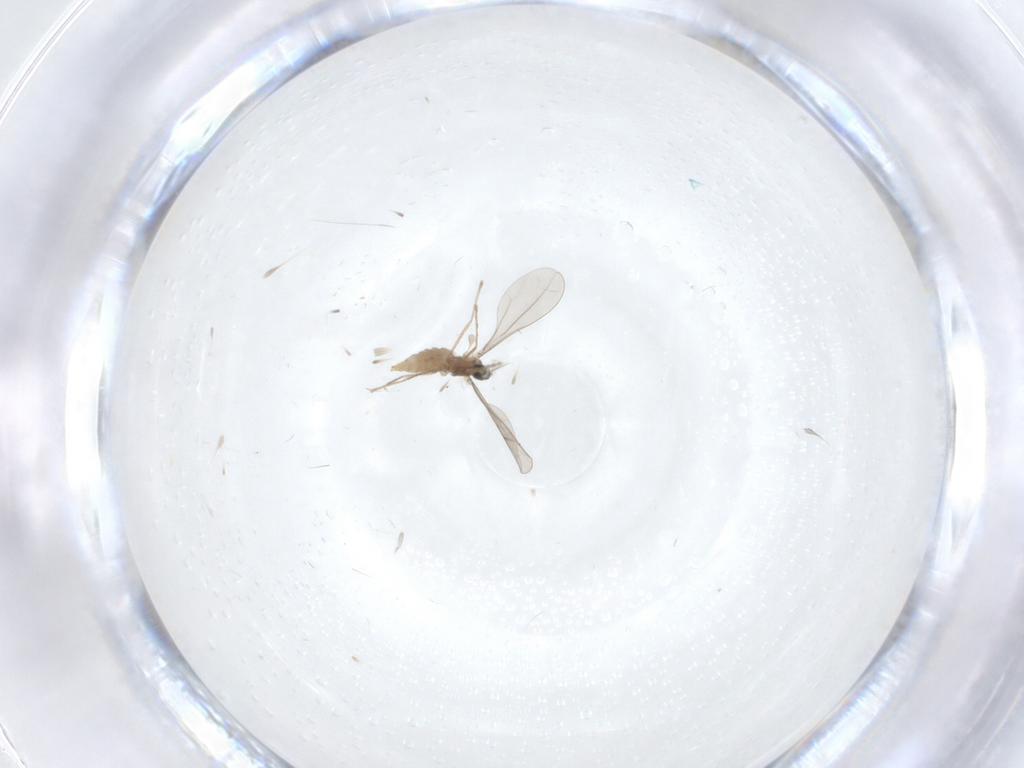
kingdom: Animalia
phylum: Arthropoda
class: Insecta
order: Diptera
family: Cecidomyiidae
